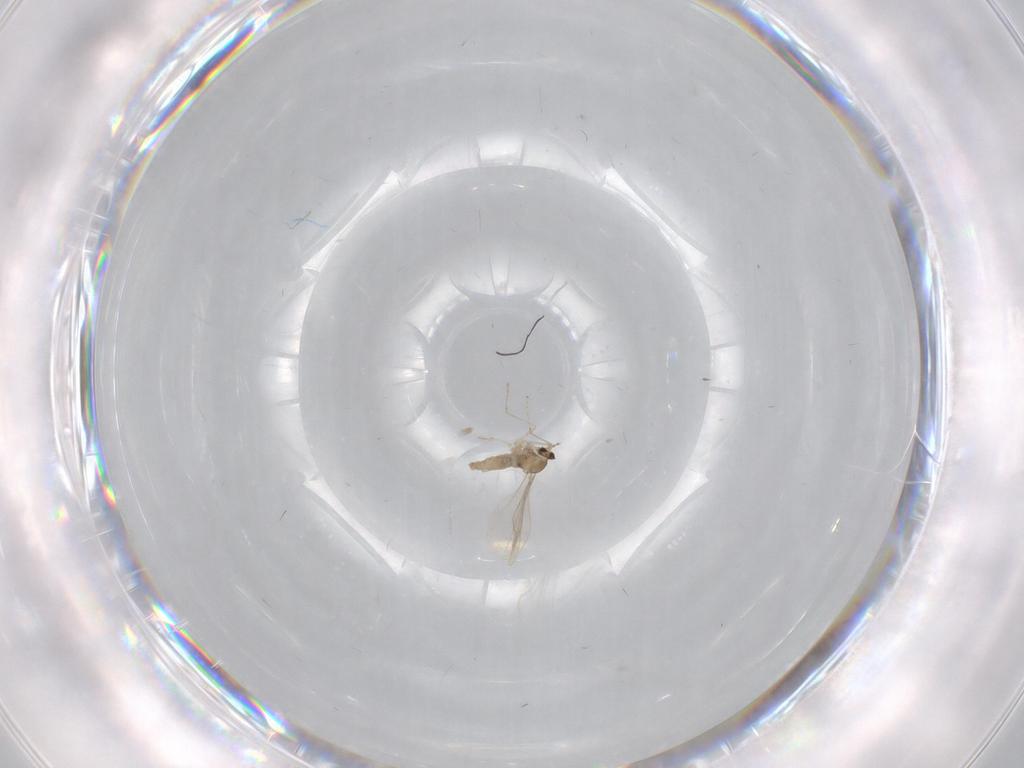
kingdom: Animalia
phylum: Arthropoda
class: Insecta
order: Diptera
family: Cecidomyiidae
